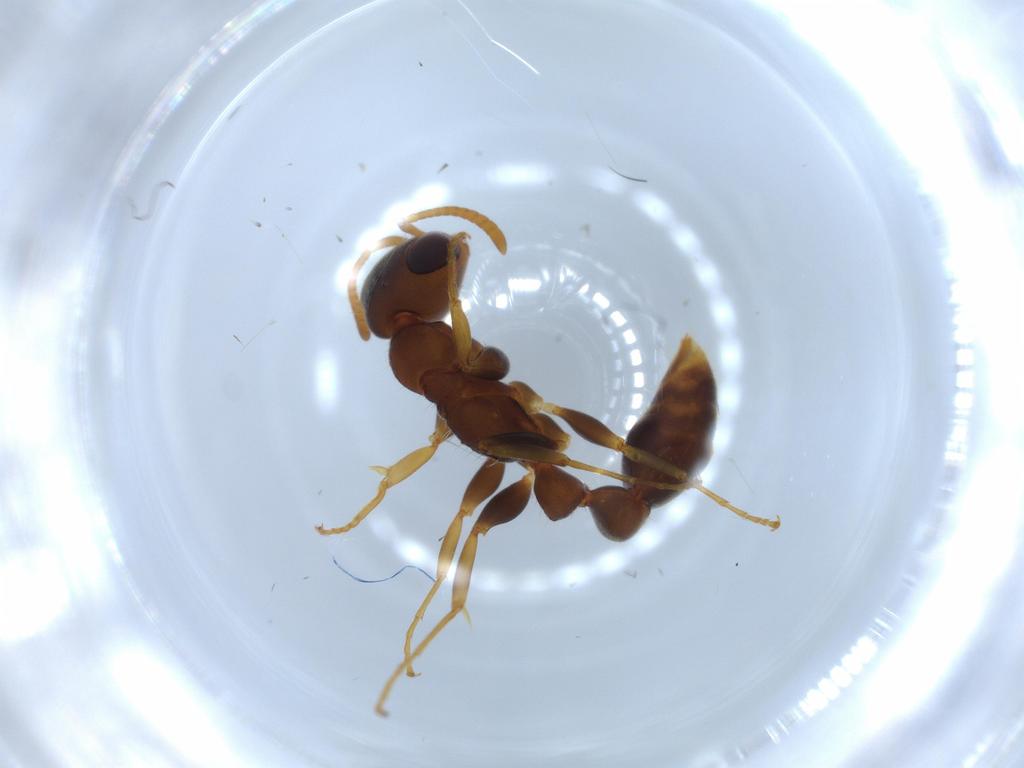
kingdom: Animalia
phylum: Arthropoda
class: Insecta
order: Hymenoptera
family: Formicidae
